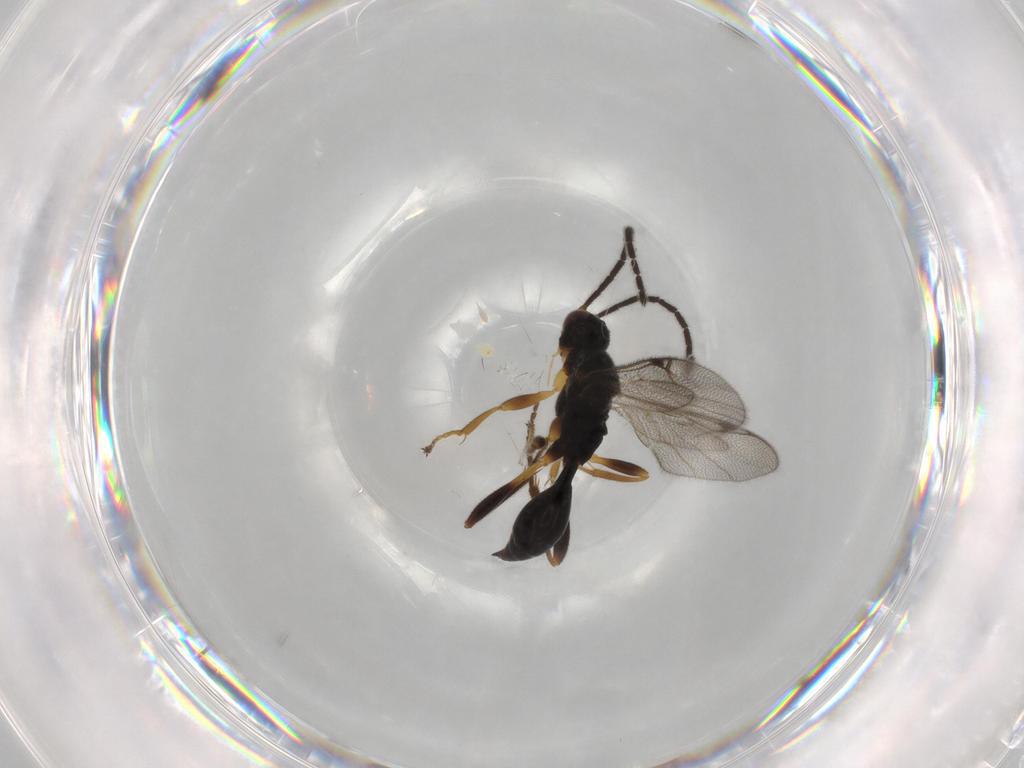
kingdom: Animalia
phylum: Arthropoda
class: Insecta
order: Hymenoptera
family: Proctotrupidae
